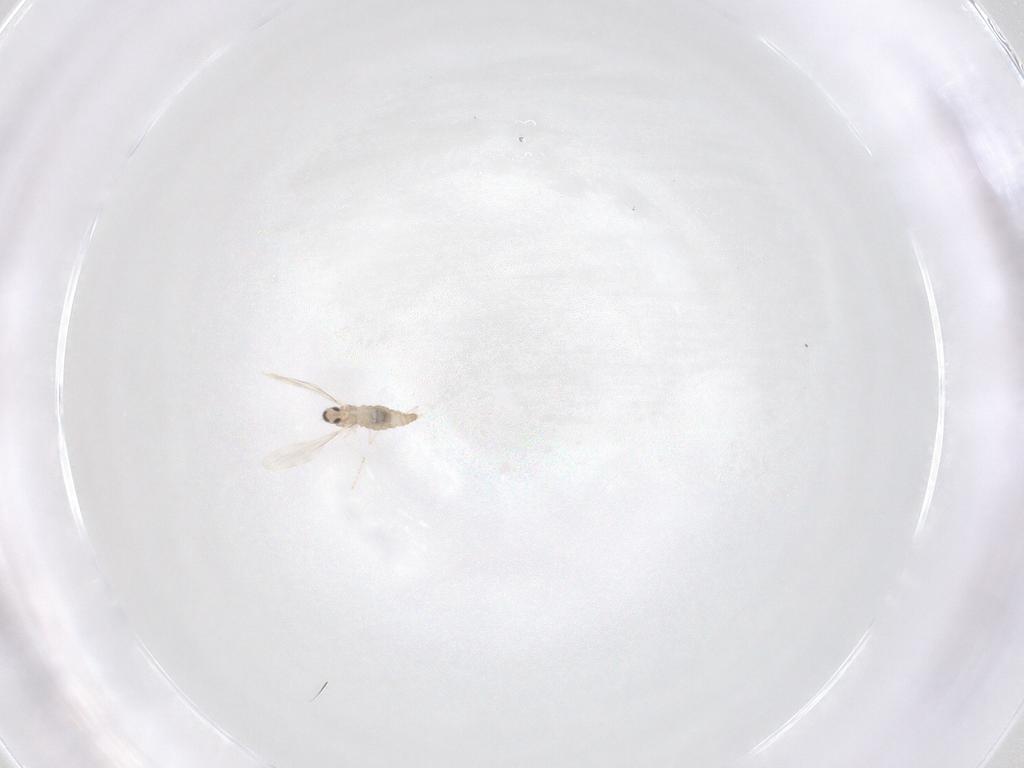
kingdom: Animalia
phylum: Arthropoda
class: Insecta
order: Diptera
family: Cecidomyiidae
